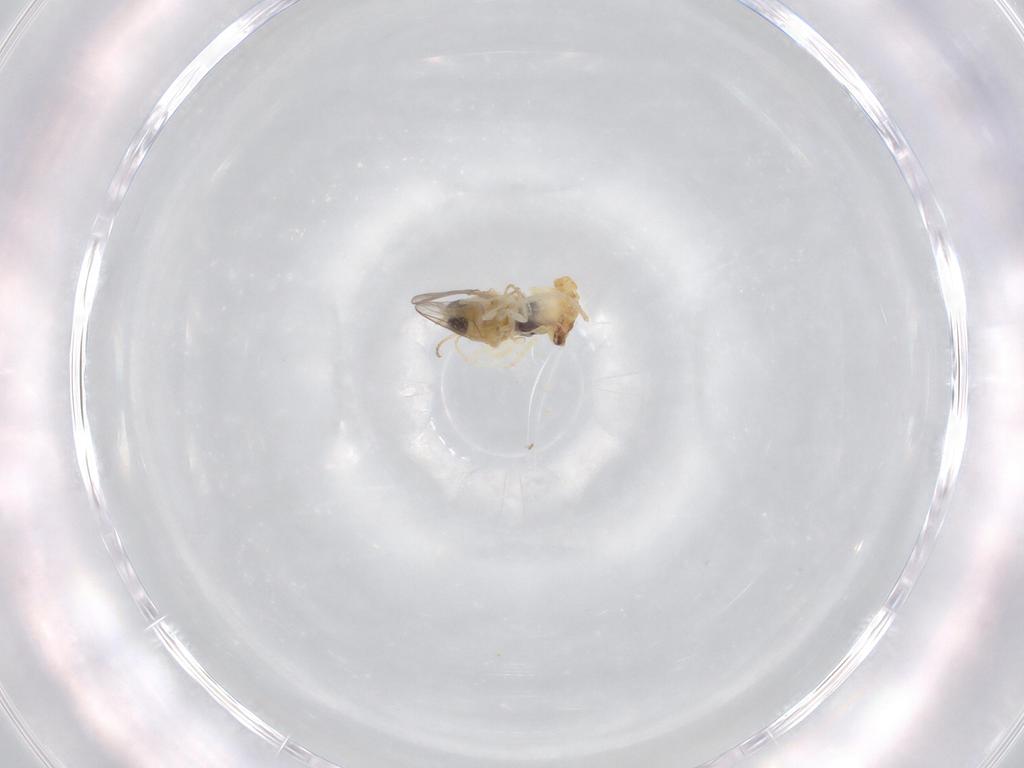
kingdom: Animalia
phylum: Arthropoda
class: Insecta
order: Diptera
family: Mythicomyiidae
